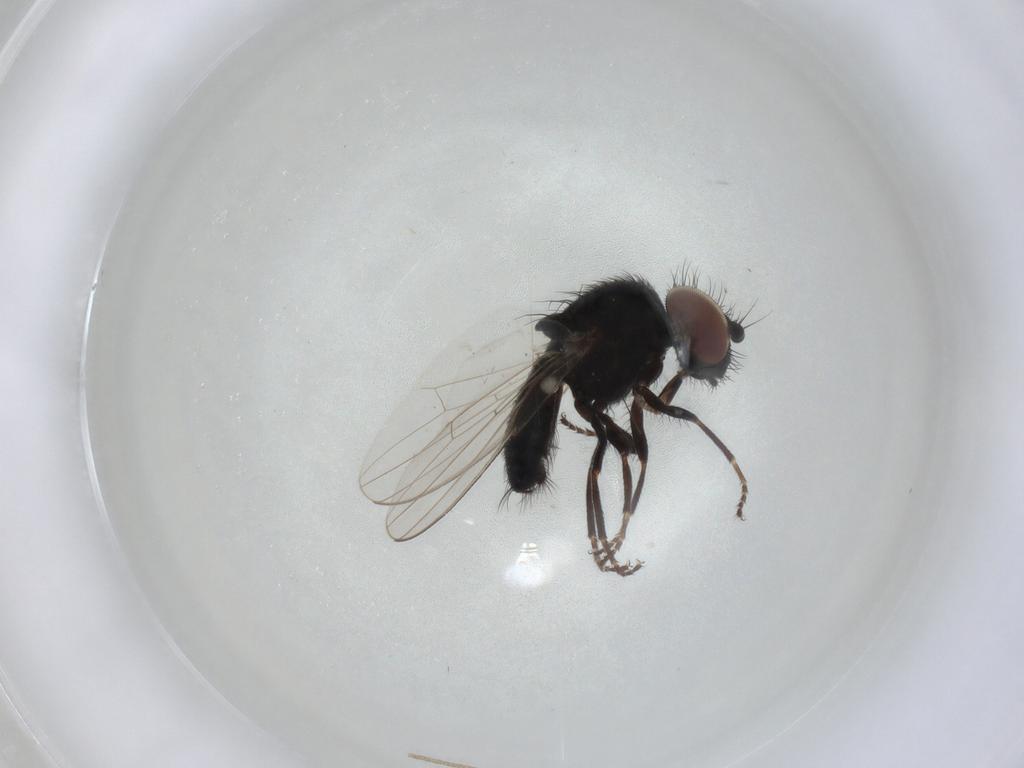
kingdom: Animalia
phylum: Arthropoda
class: Insecta
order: Diptera
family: Milichiidae
